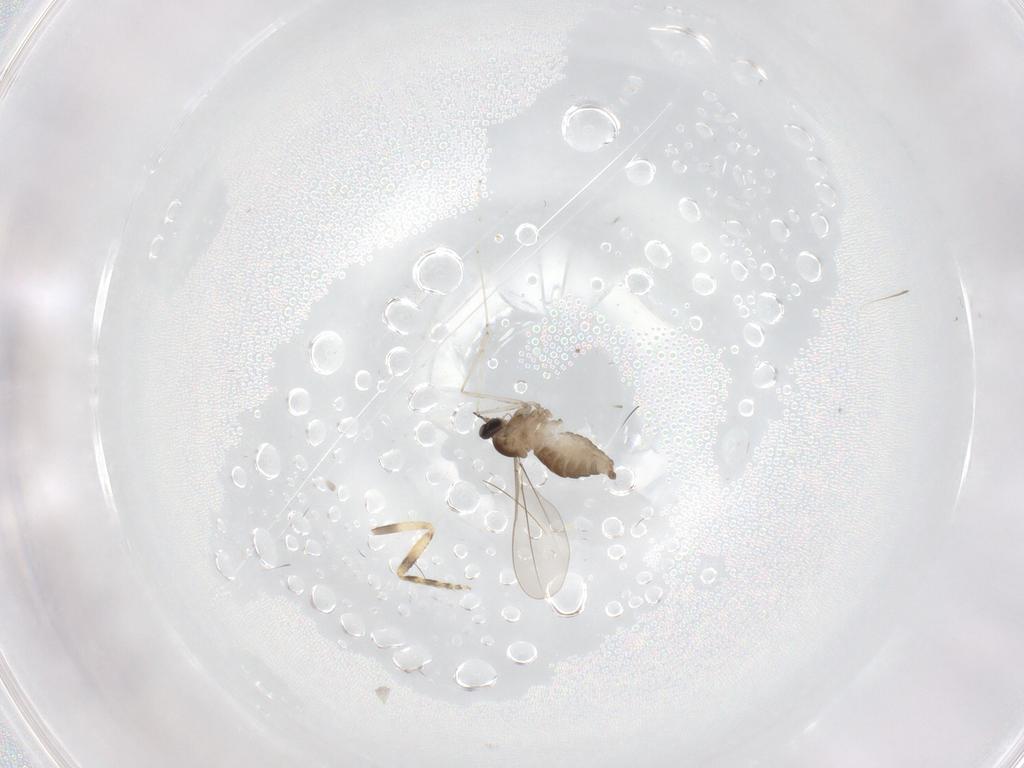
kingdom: Animalia
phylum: Arthropoda
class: Insecta
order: Diptera
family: Cecidomyiidae
